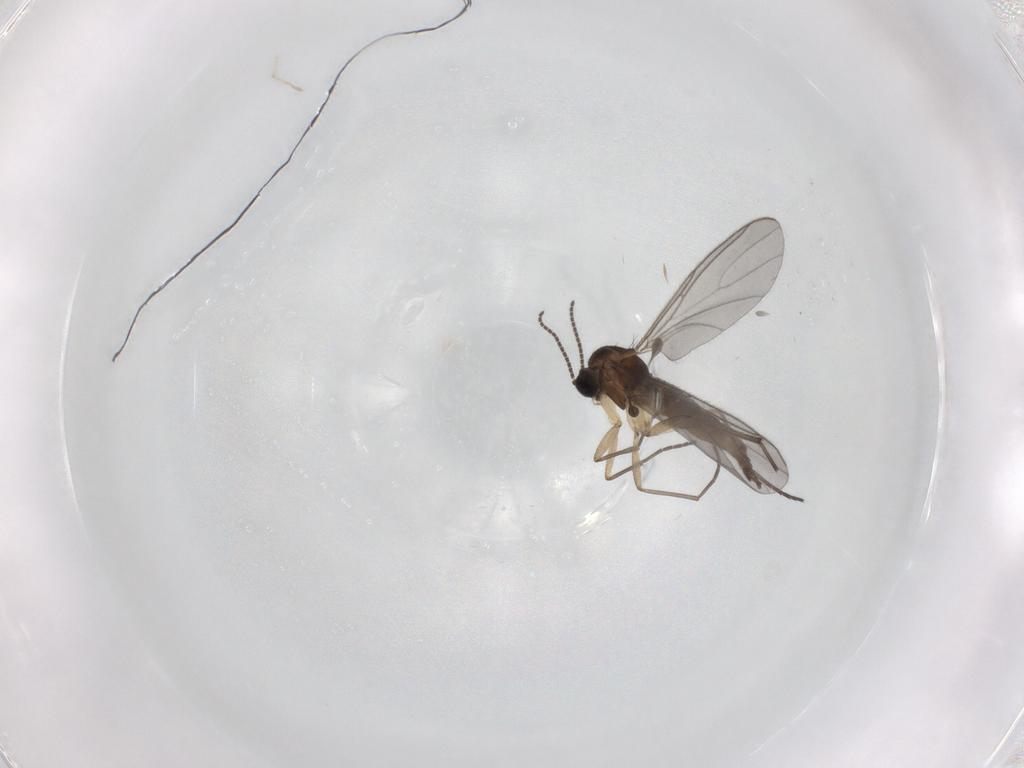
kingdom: Animalia
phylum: Arthropoda
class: Insecta
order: Diptera
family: Sciaridae
